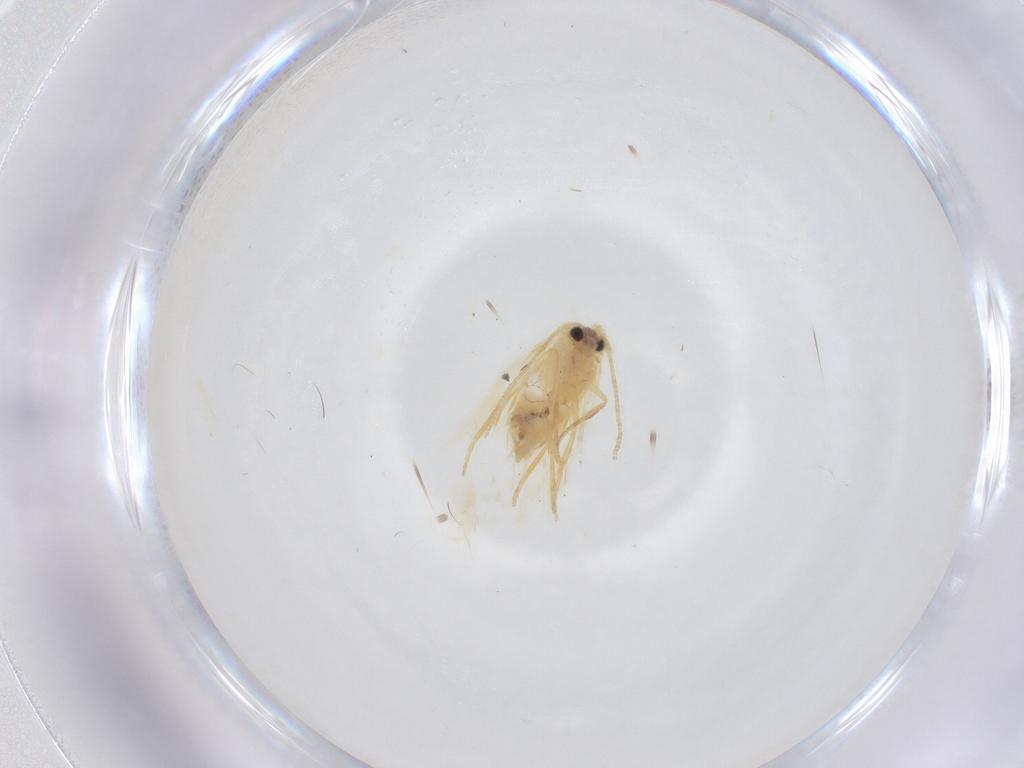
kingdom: Animalia
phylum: Arthropoda
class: Insecta
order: Lepidoptera
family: Nepticulidae
